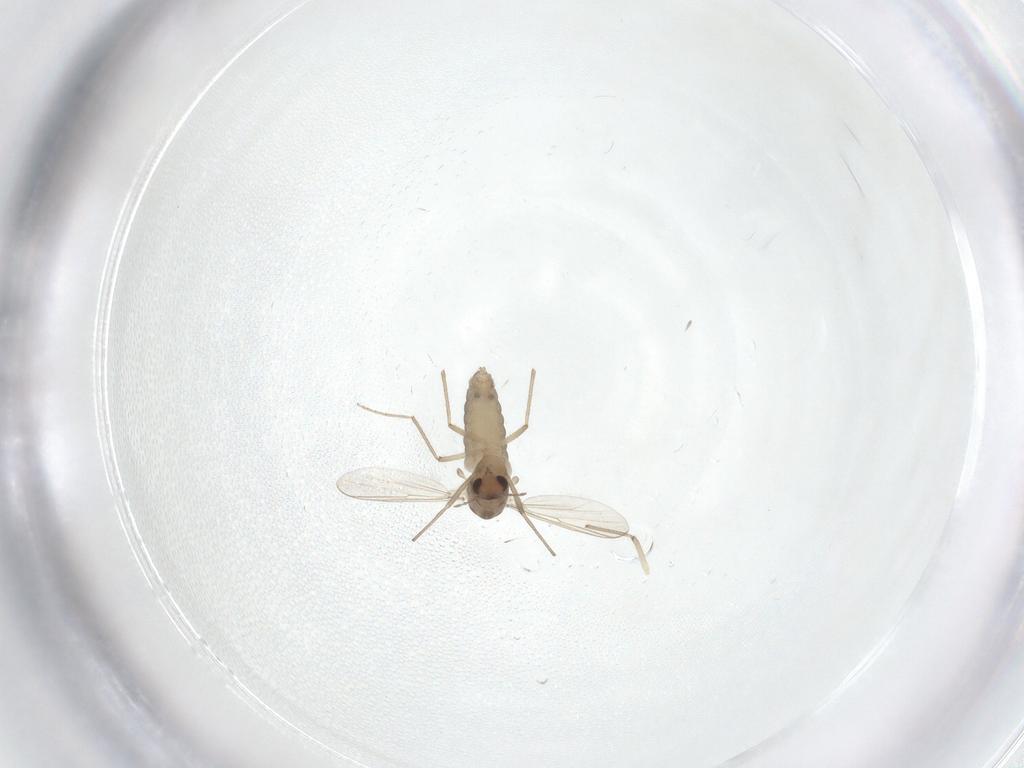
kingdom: Animalia
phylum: Arthropoda
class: Insecta
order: Diptera
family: Chironomidae
